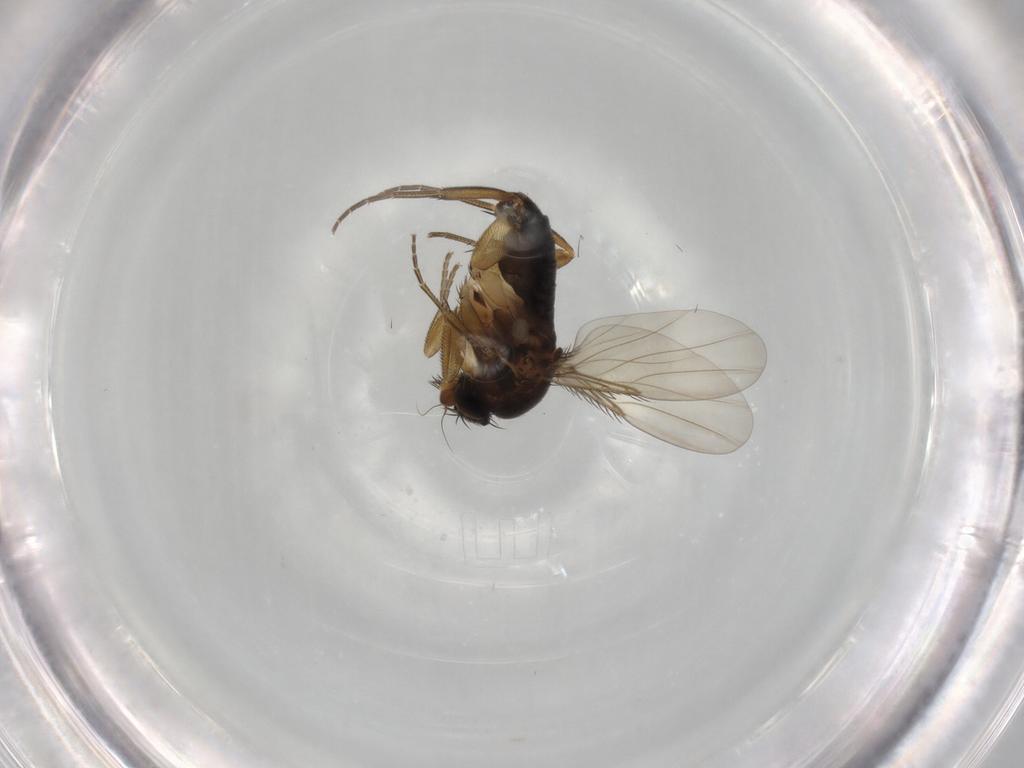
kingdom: Animalia
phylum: Arthropoda
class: Insecta
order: Diptera
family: Phoridae
